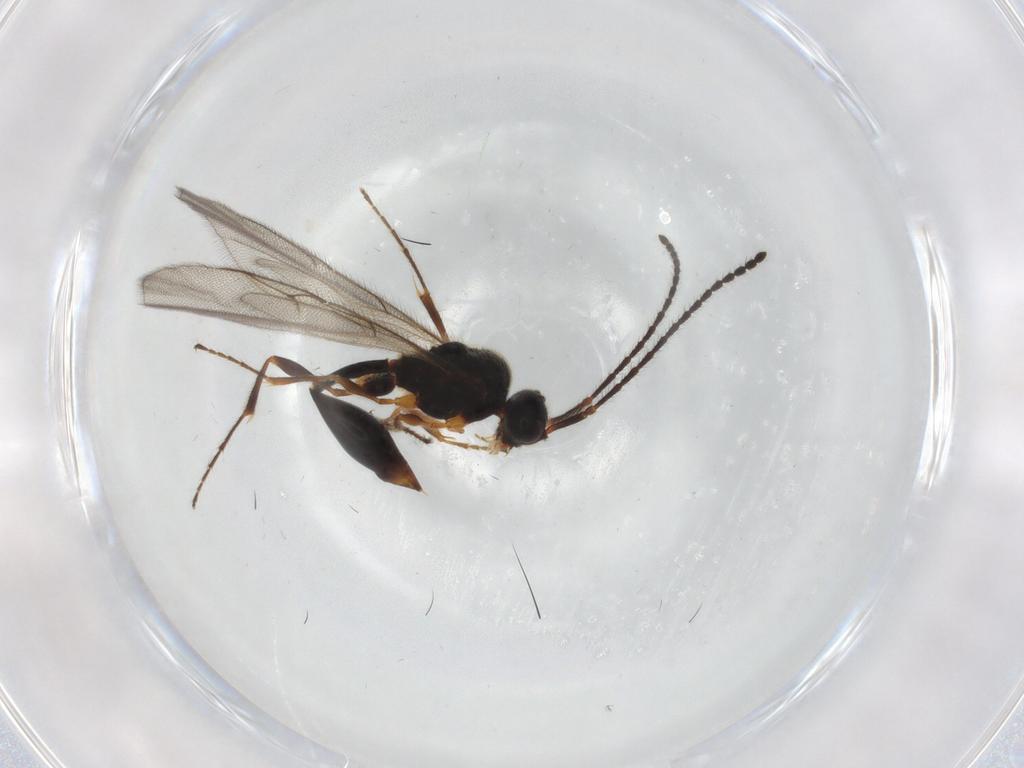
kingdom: Animalia
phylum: Arthropoda
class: Insecta
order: Hymenoptera
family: Diapriidae
